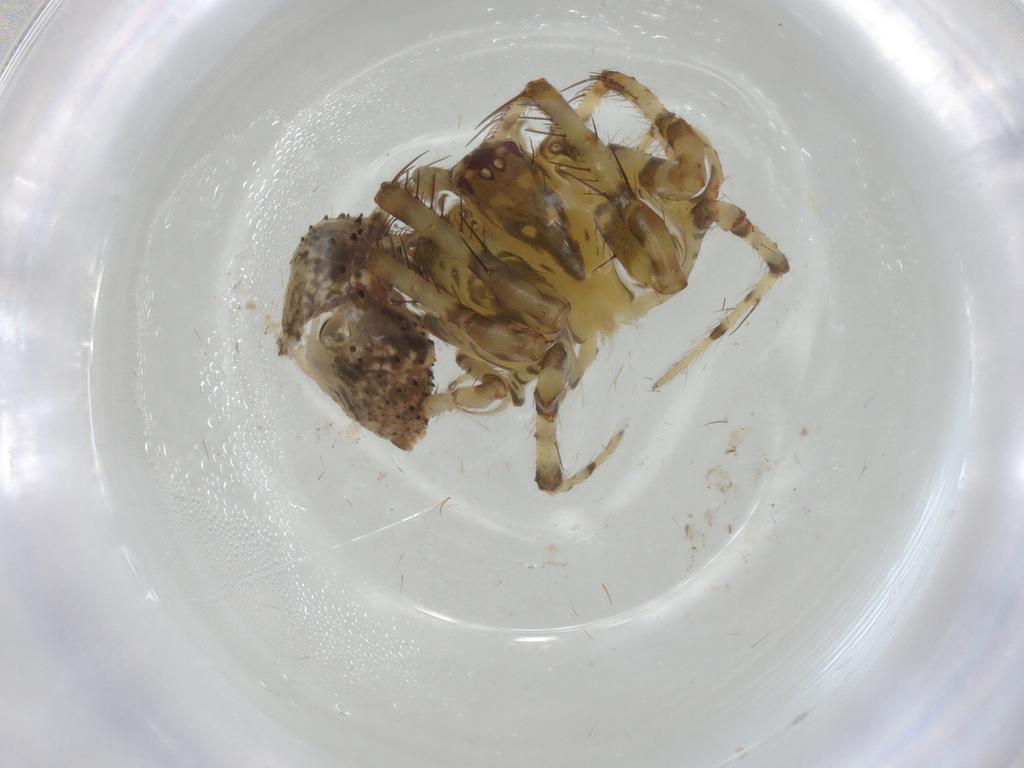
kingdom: Animalia
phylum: Arthropoda
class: Arachnida
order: Araneae
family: Mimetidae
